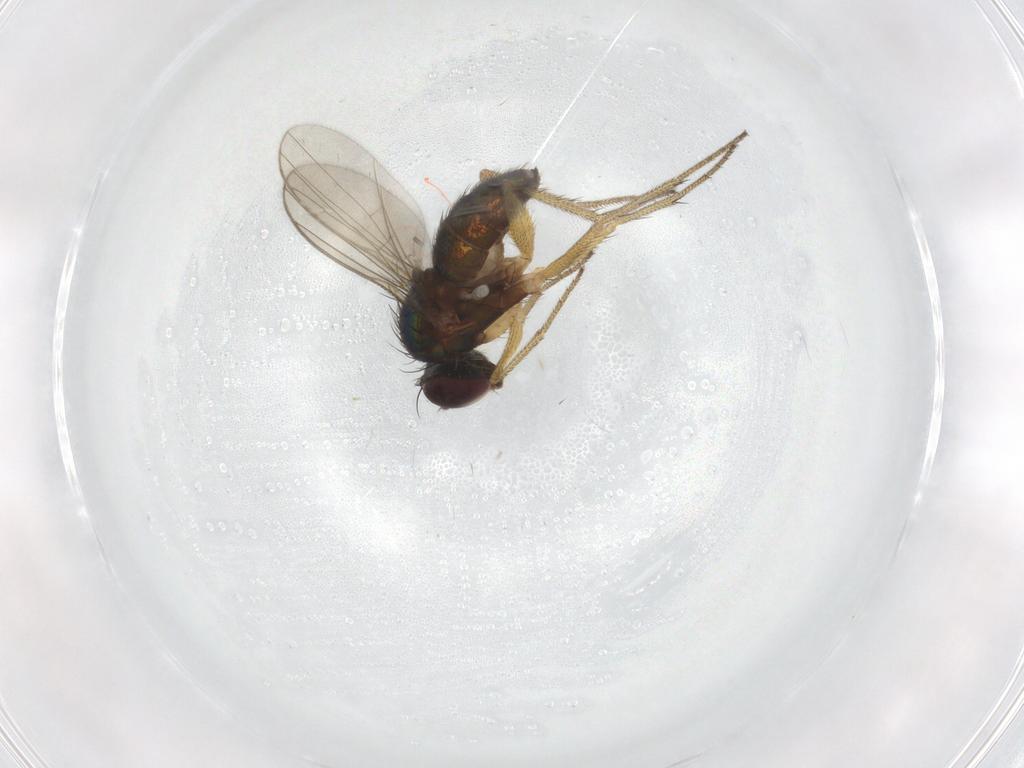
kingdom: Animalia
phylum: Arthropoda
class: Insecta
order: Diptera
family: Dolichopodidae
